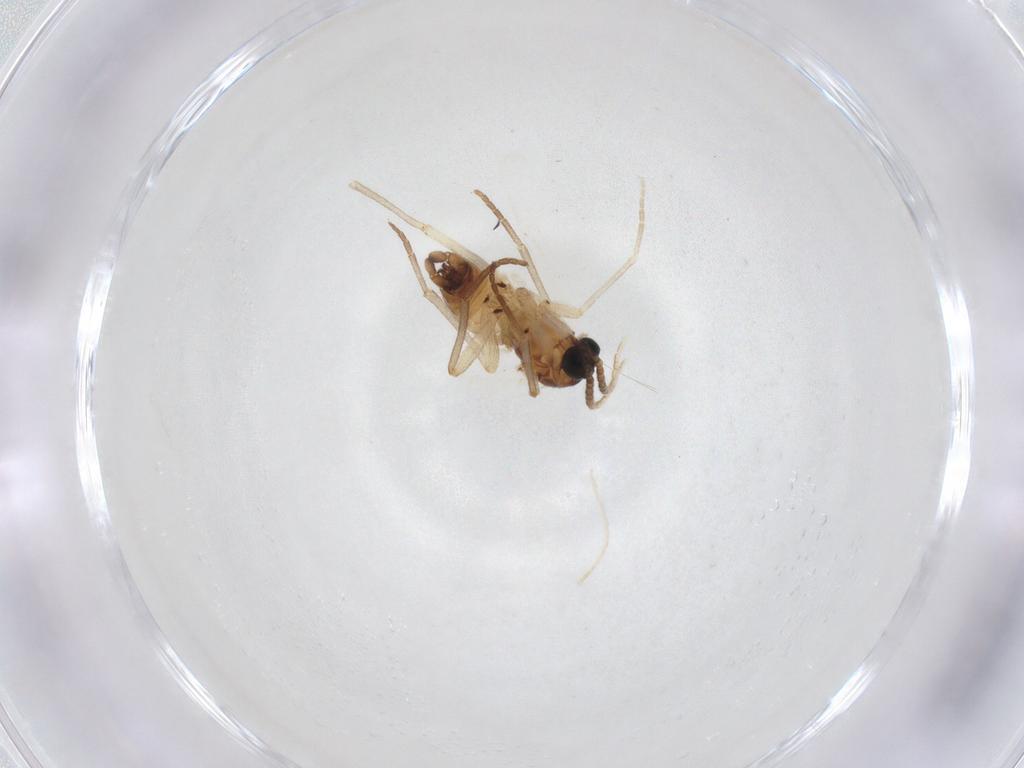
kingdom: Animalia
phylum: Arthropoda
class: Insecta
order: Diptera
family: Sciaridae
